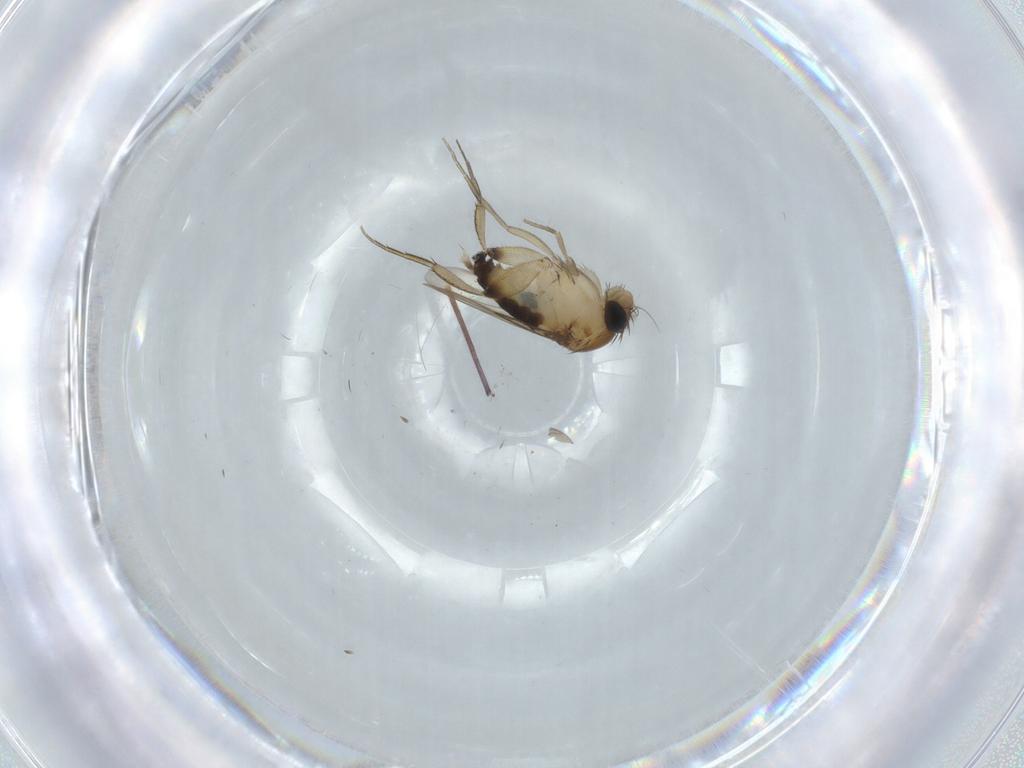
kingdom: Animalia
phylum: Arthropoda
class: Insecta
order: Diptera
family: Phoridae
